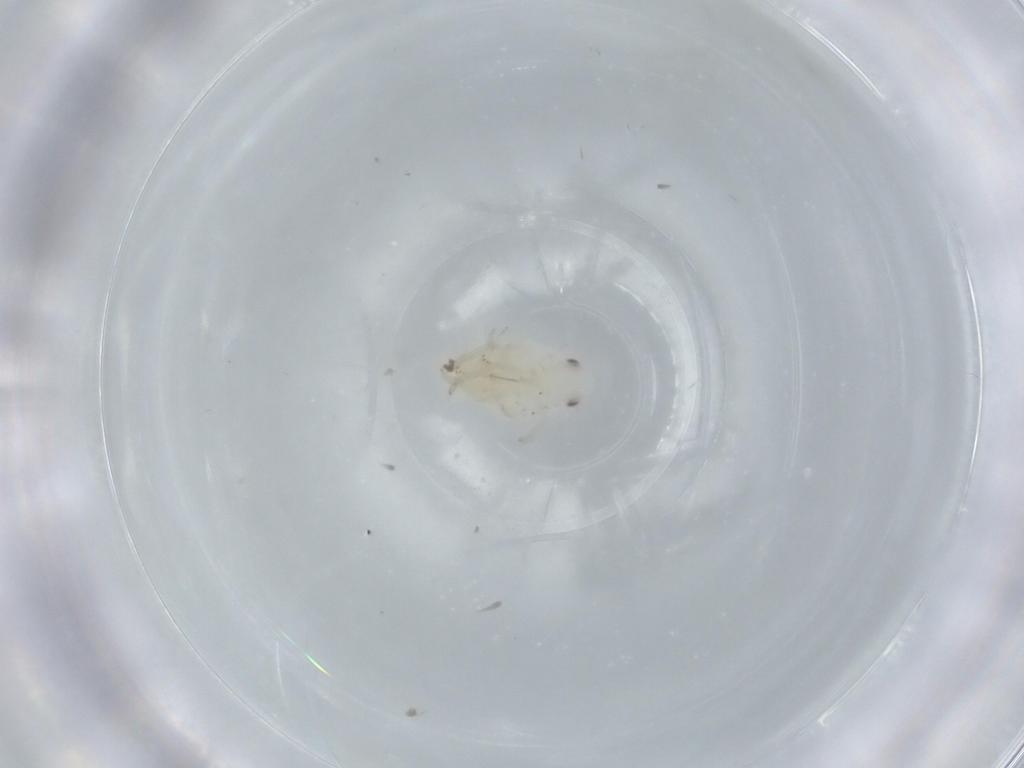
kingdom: Animalia
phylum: Arthropoda
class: Insecta
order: Hemiptera
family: Flatidae
